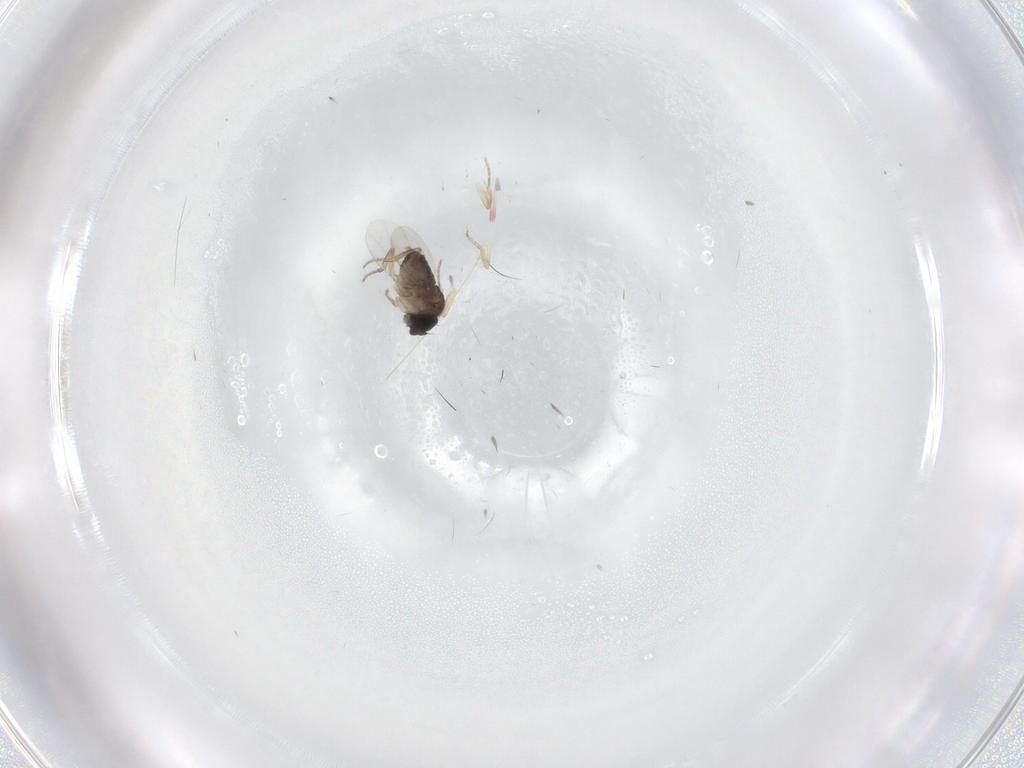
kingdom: Animalia
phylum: Arthropoda
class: Insecta
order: Diptera
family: Phoridae
